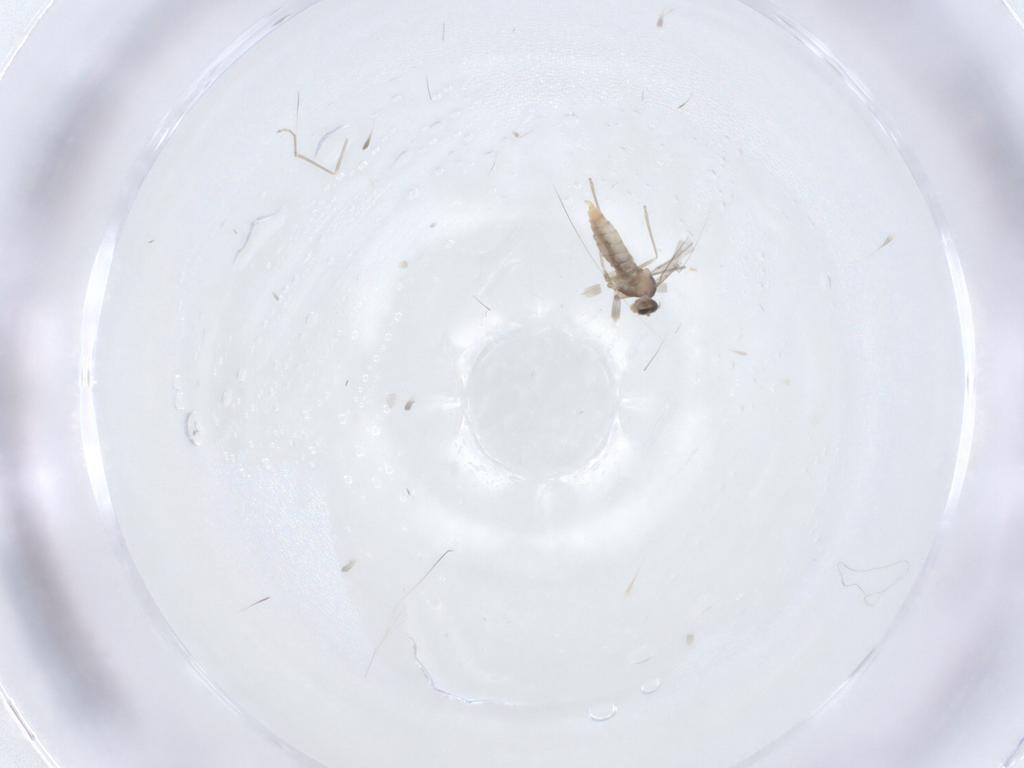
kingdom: Animalia
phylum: Arthropoda
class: Insecta
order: Diptera
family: Cecidomyiidae
